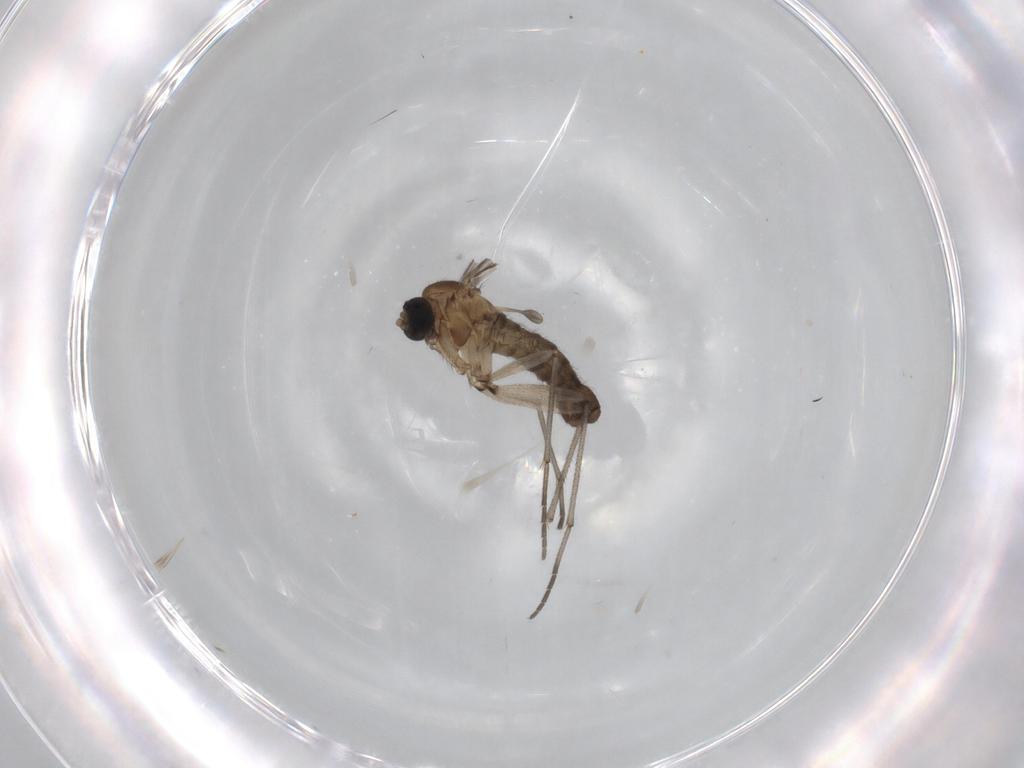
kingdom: Animalia
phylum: Arthropoda
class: Insecta
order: Diptera
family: Sciaridae
